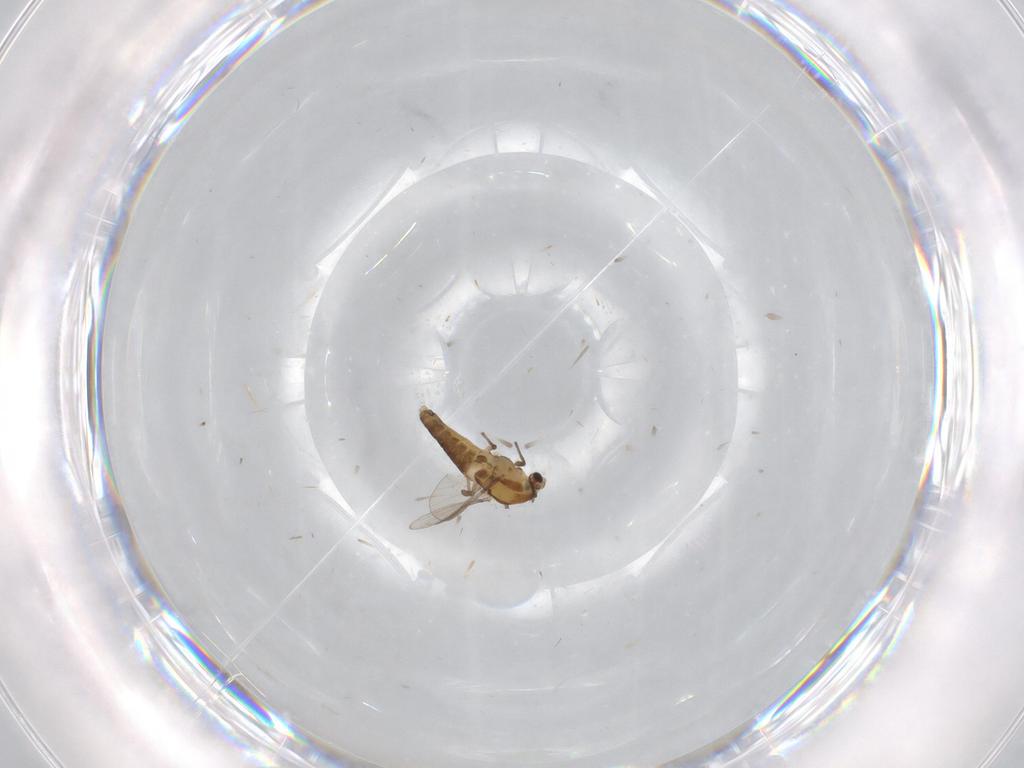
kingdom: Animalia
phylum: Arthropoda
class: Insecta
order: Diptera
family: Chironomidae
